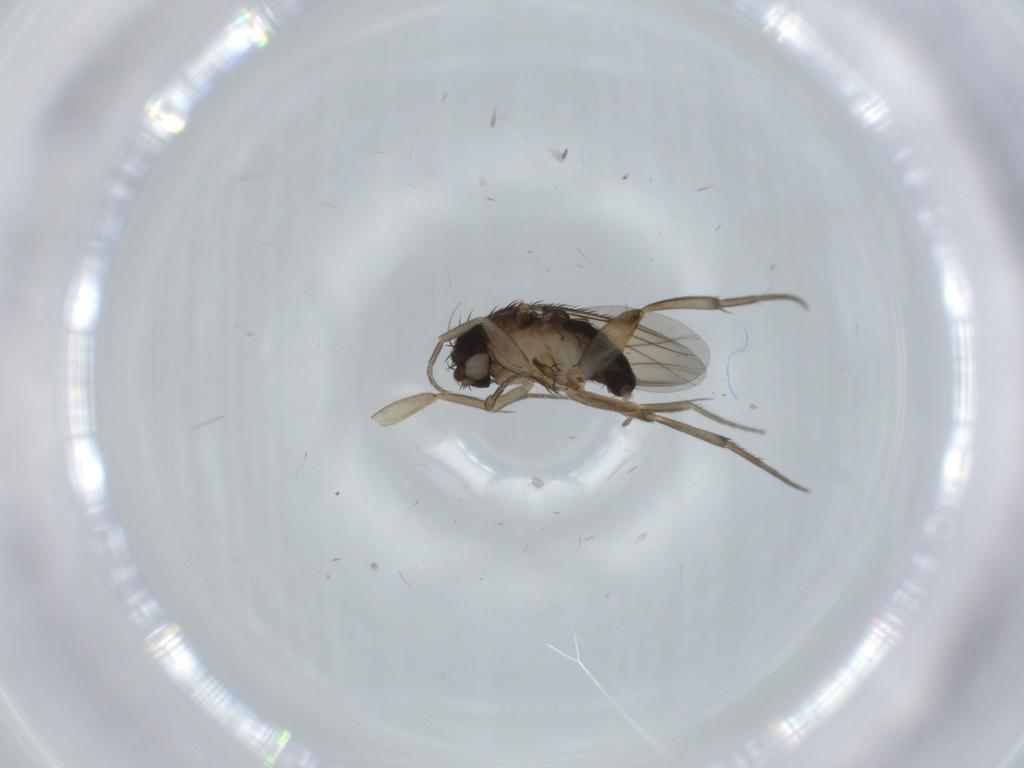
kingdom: Animalia
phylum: Arthropoda
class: Insecta
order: Diptera
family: Phoridae
